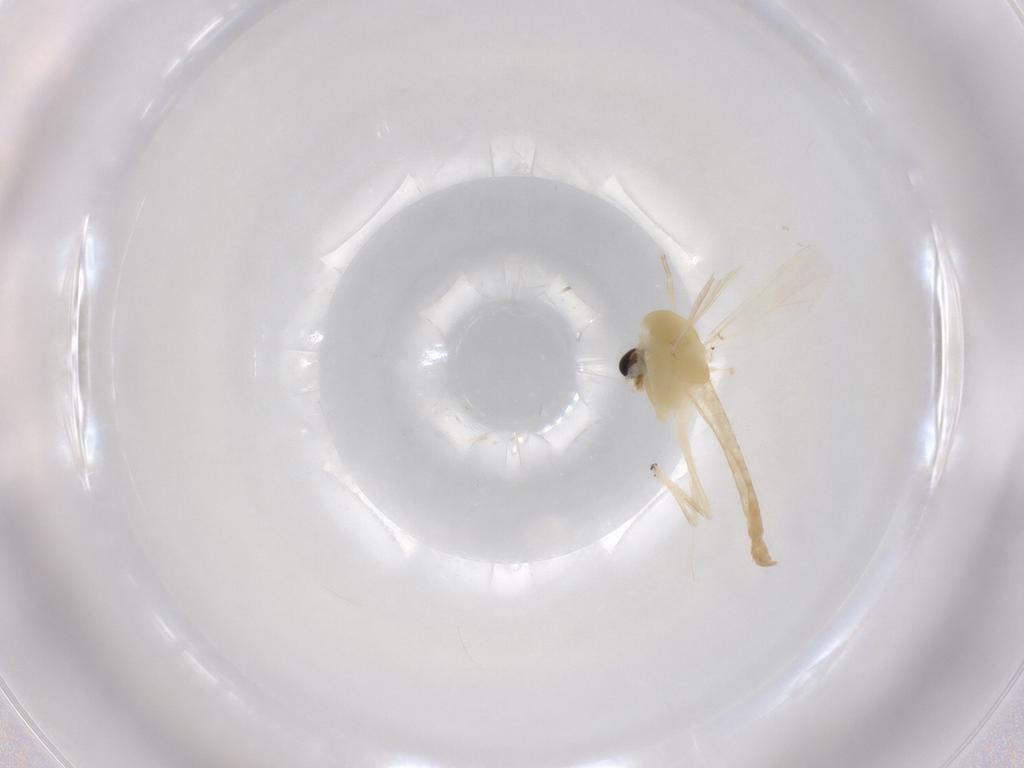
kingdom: Animalia
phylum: Arthropoda
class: Insecta
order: Diptera
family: Chironomidae
